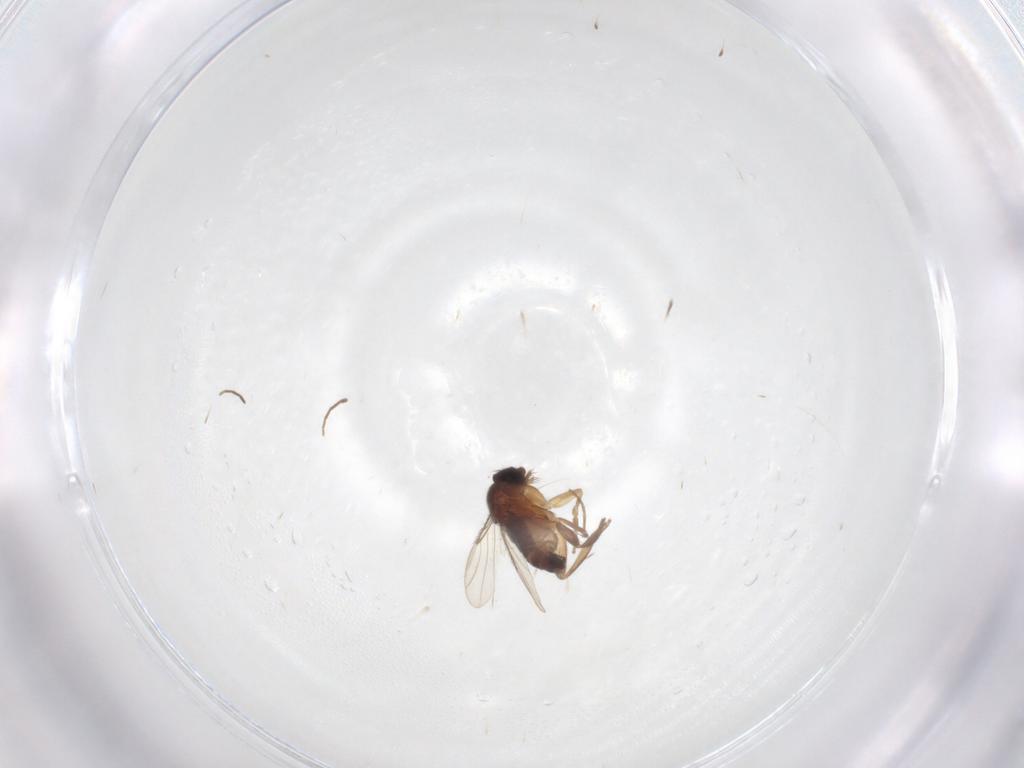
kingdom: Animalia
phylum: Arthropoda
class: Insecta
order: Diptera
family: Phoridae
